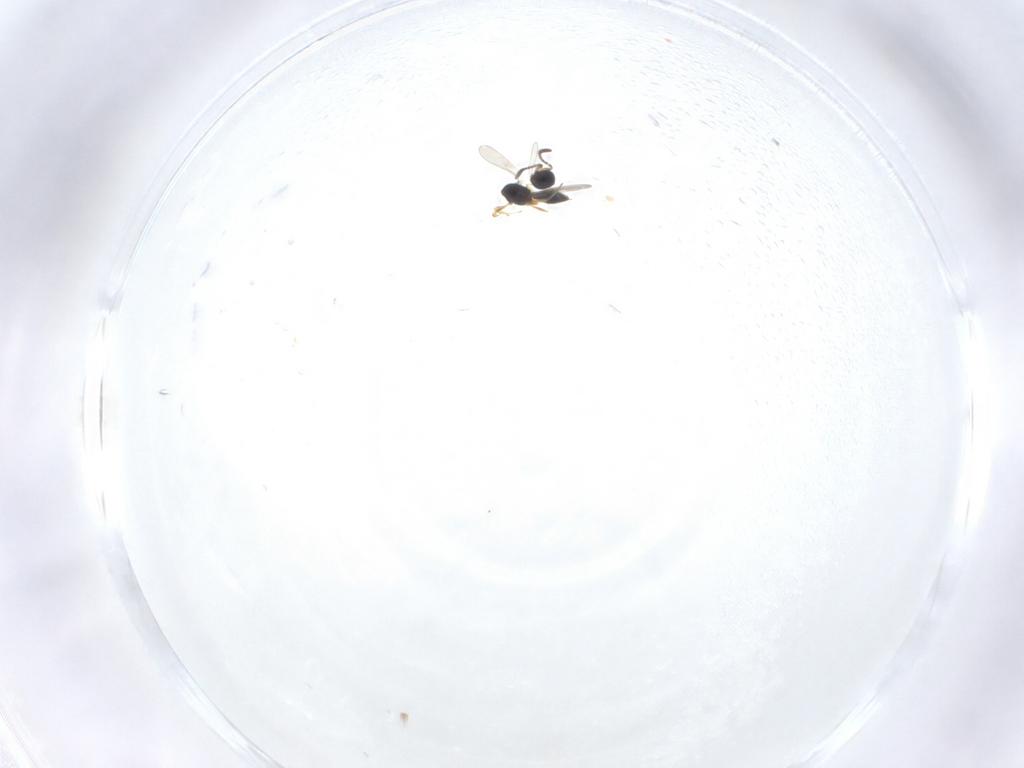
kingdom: Animalia
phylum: Arthropoda
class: Insecta
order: Hymenoptera
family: Scelionidae
